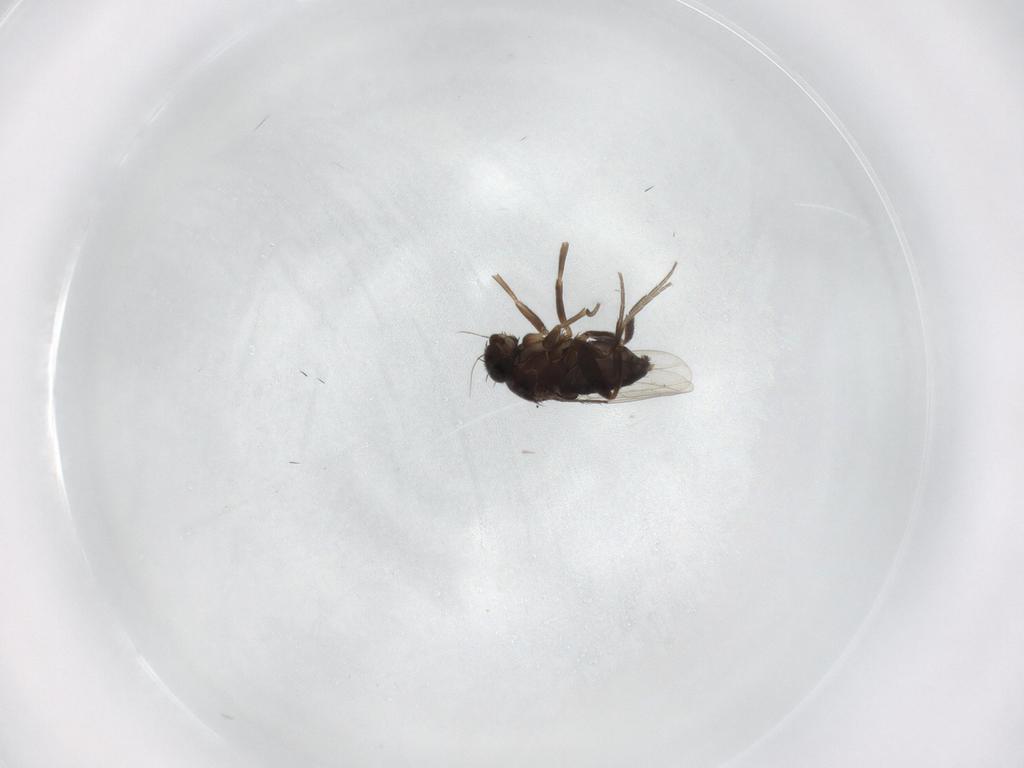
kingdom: Animalia
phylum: Arthropoda
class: Insecta
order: Diptera
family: Phoridae
